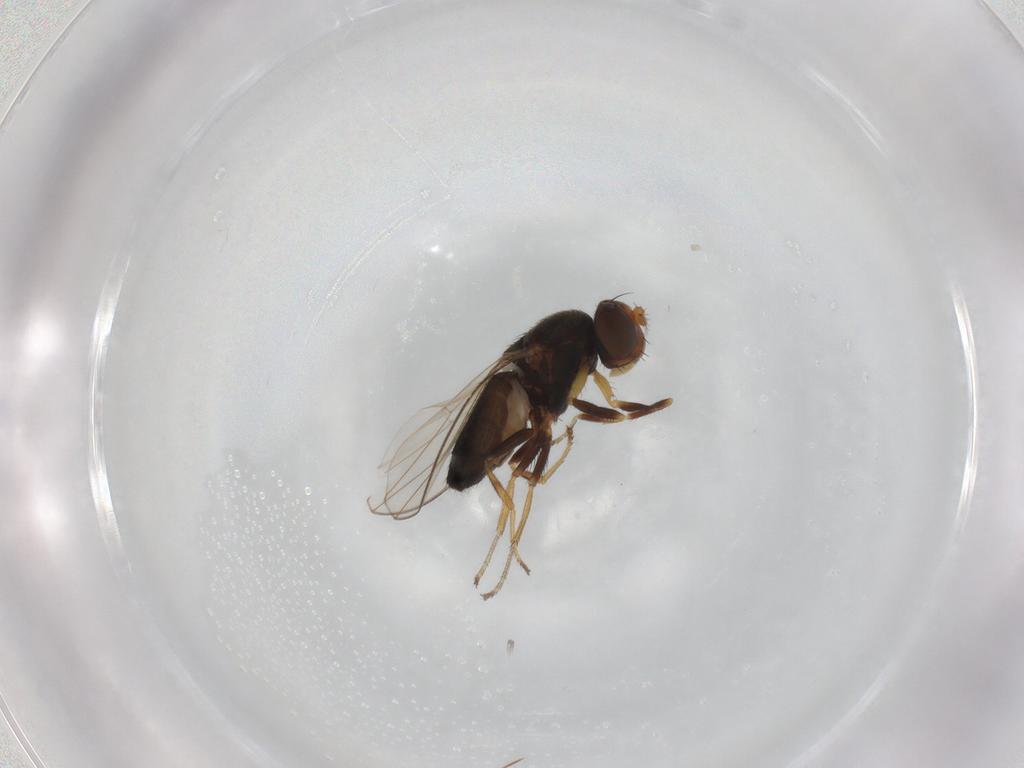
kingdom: Animalia
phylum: Arthropoda
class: Insecta
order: Diptera
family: Ephydridae
